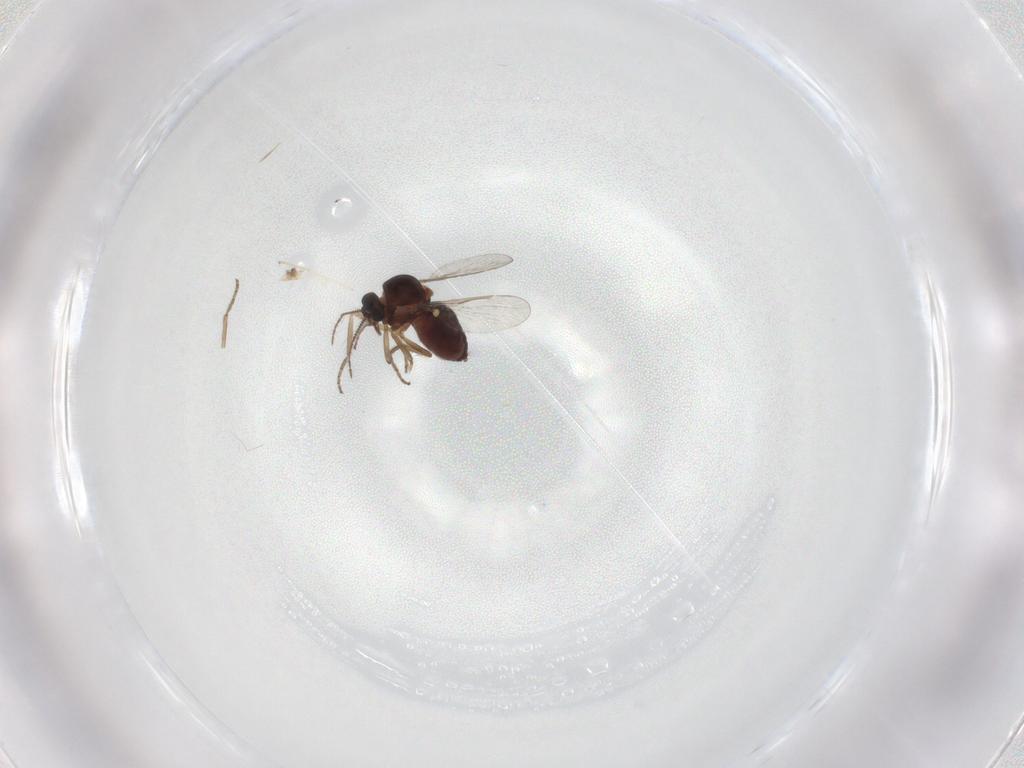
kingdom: Animalia
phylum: Arthropoda
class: Insecta
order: Diptera
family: Cecidomyiidae
